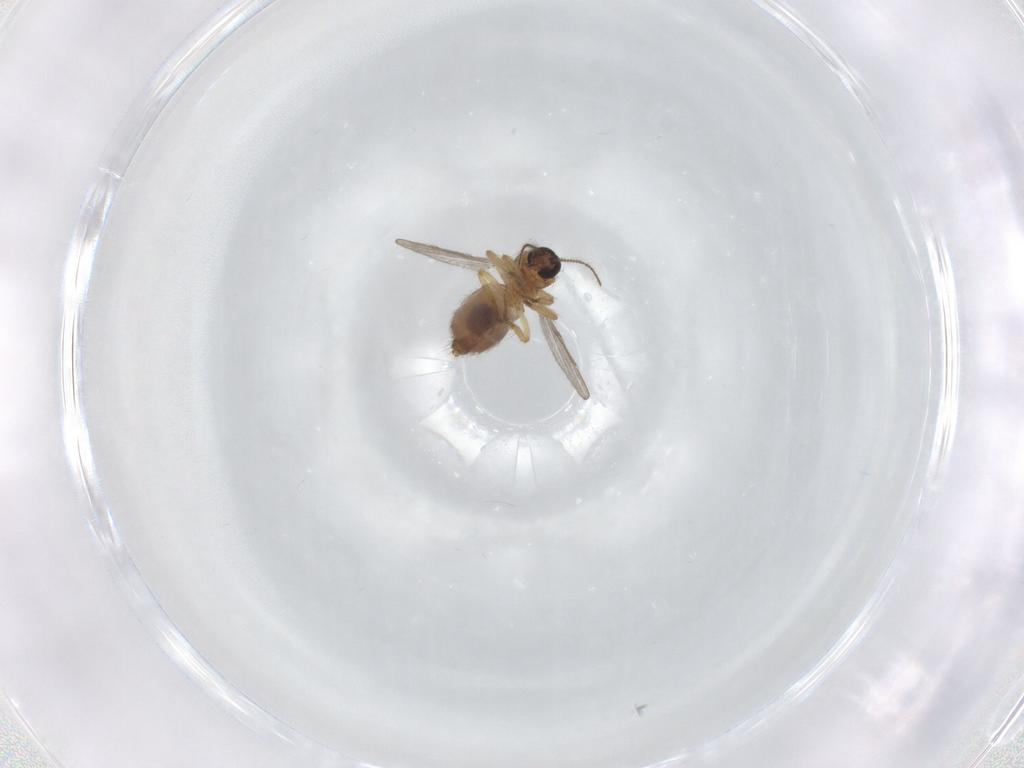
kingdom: Animalia
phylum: Arthropoda
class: Insecta
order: Diptera
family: Ceratopogonidae
